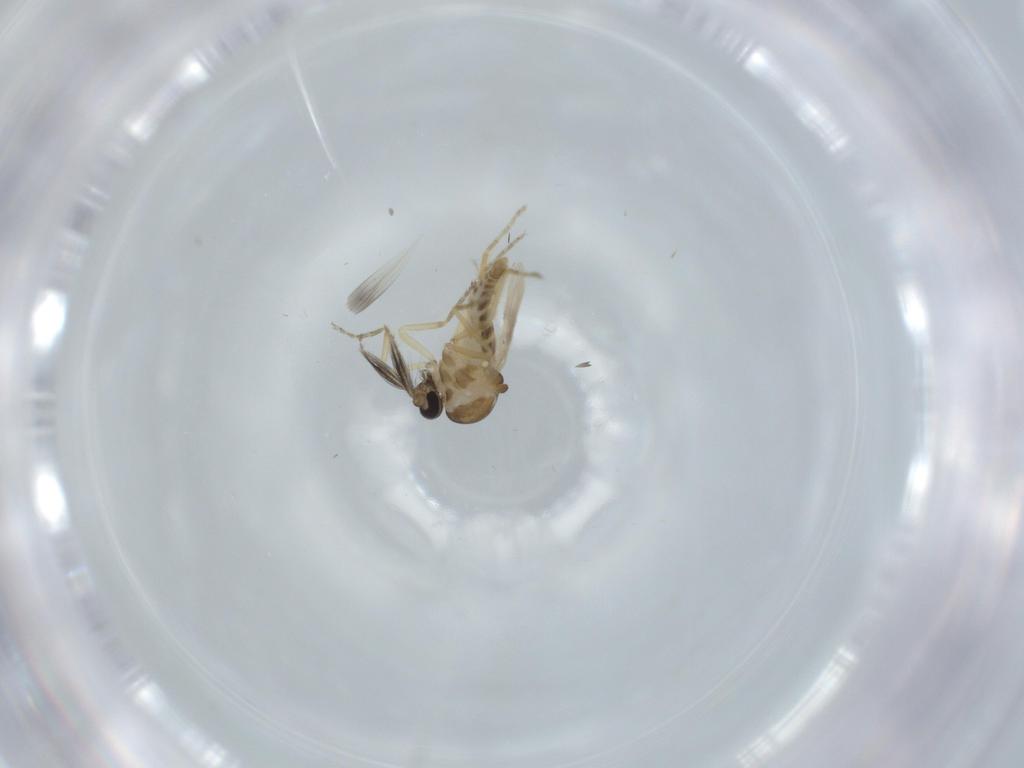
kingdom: Animalia
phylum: Arthropoda
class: Insecta
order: Diptera
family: Ceratopogonidae
